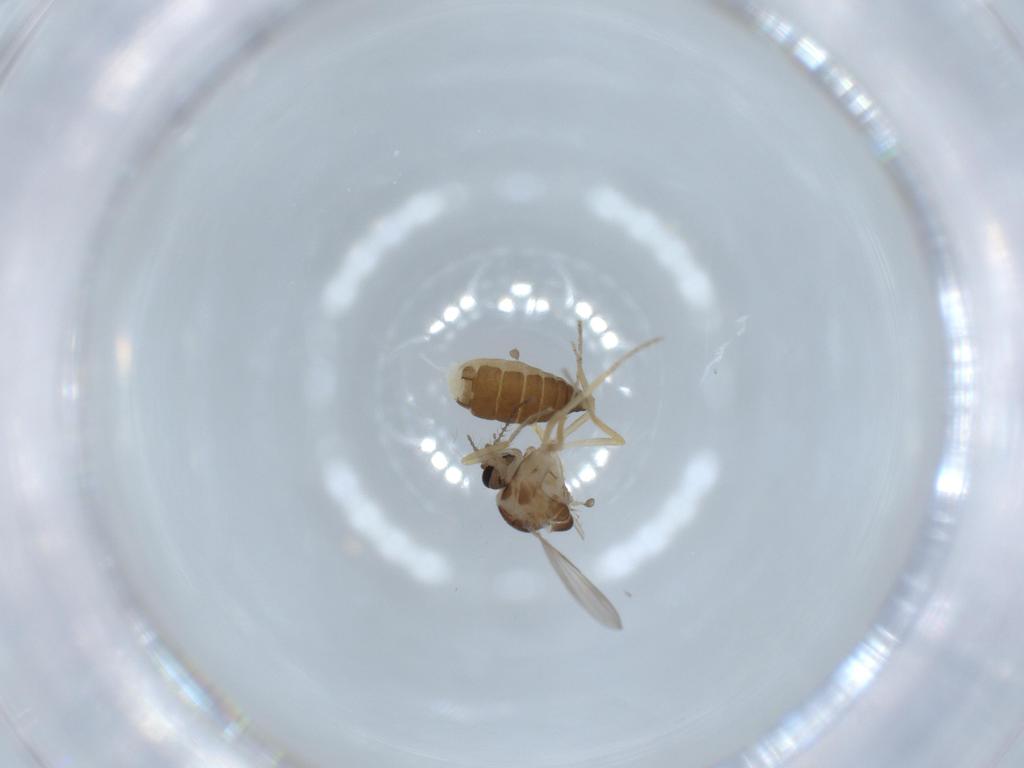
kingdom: Animalia
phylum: Arthropoda
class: Insecta
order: Diptera
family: Ceratopogonidae
